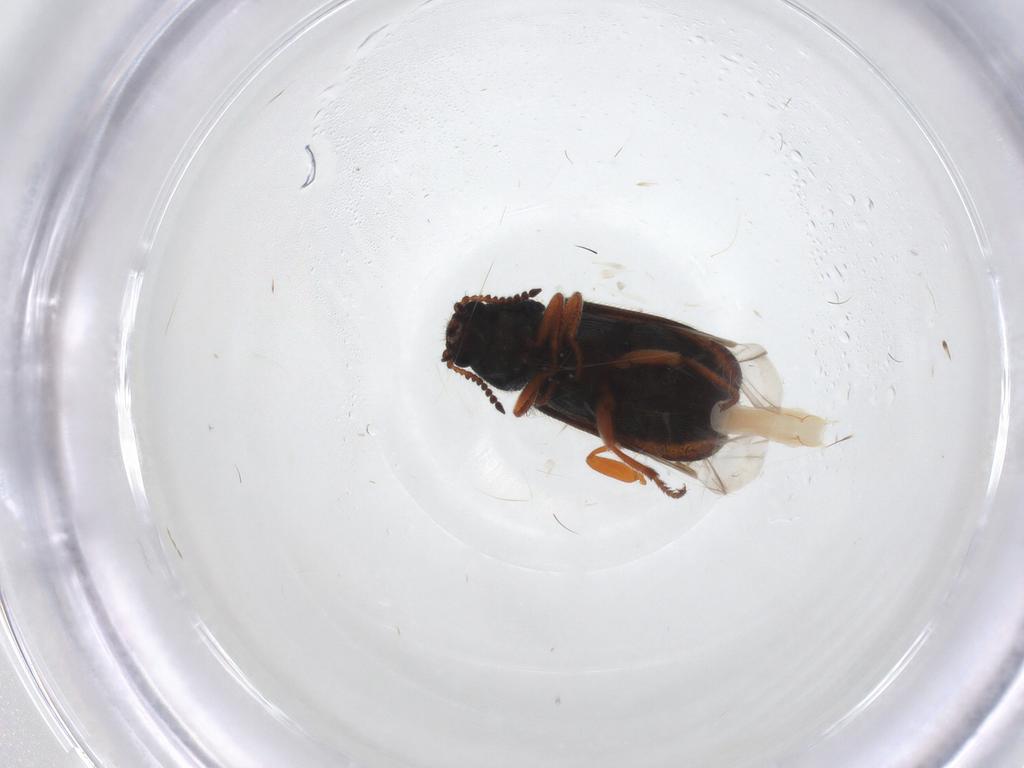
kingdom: Animalia
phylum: Arthropoda
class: Insecta
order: Coleoptera
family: Melyridae
